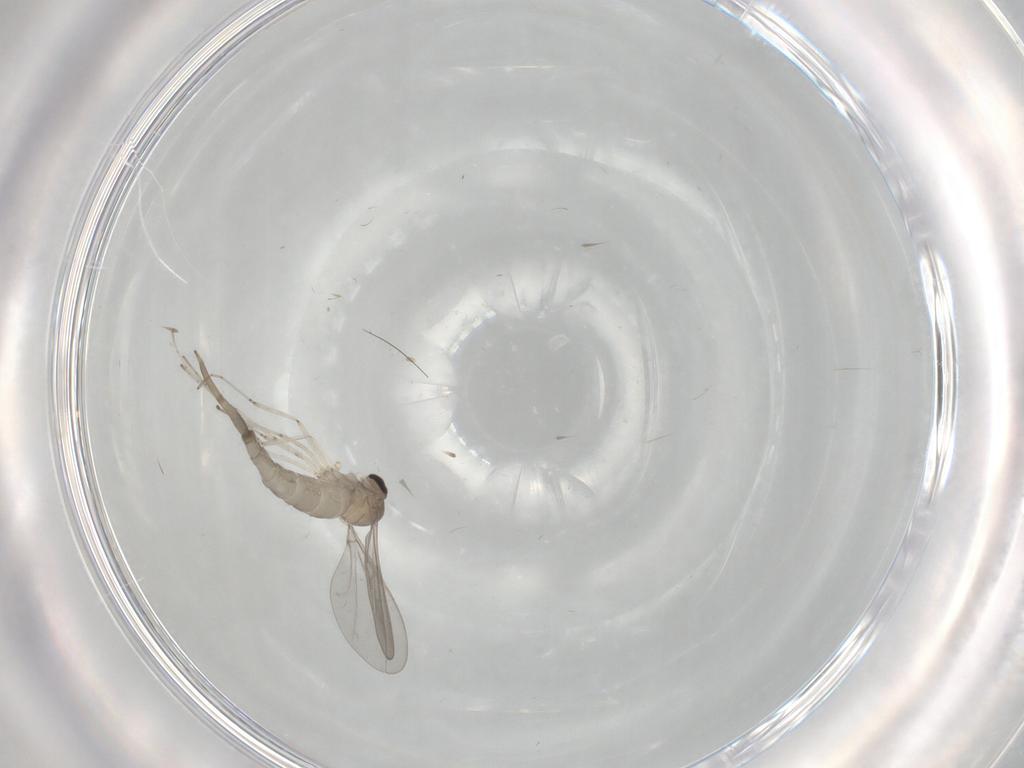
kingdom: Animalia
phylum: Arthropoda
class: Insecta
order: Diptera
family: Cecidomyiidae
